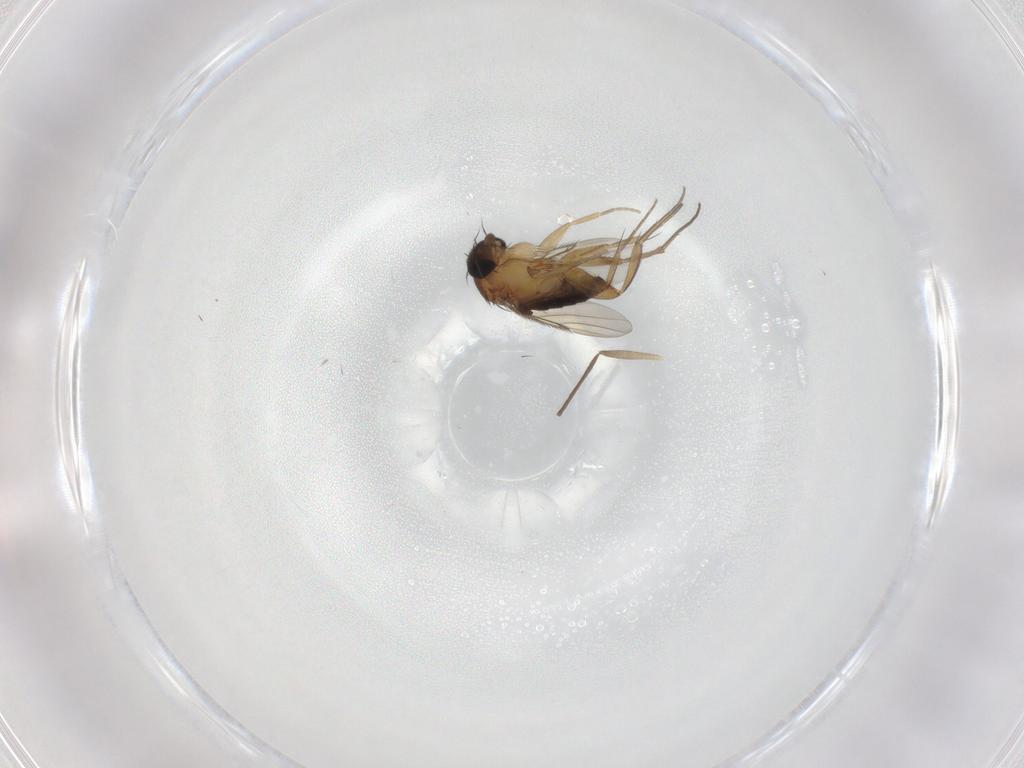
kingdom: Animalia
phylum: Arthropoda
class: Insecta
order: Diptera
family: Phoridae
